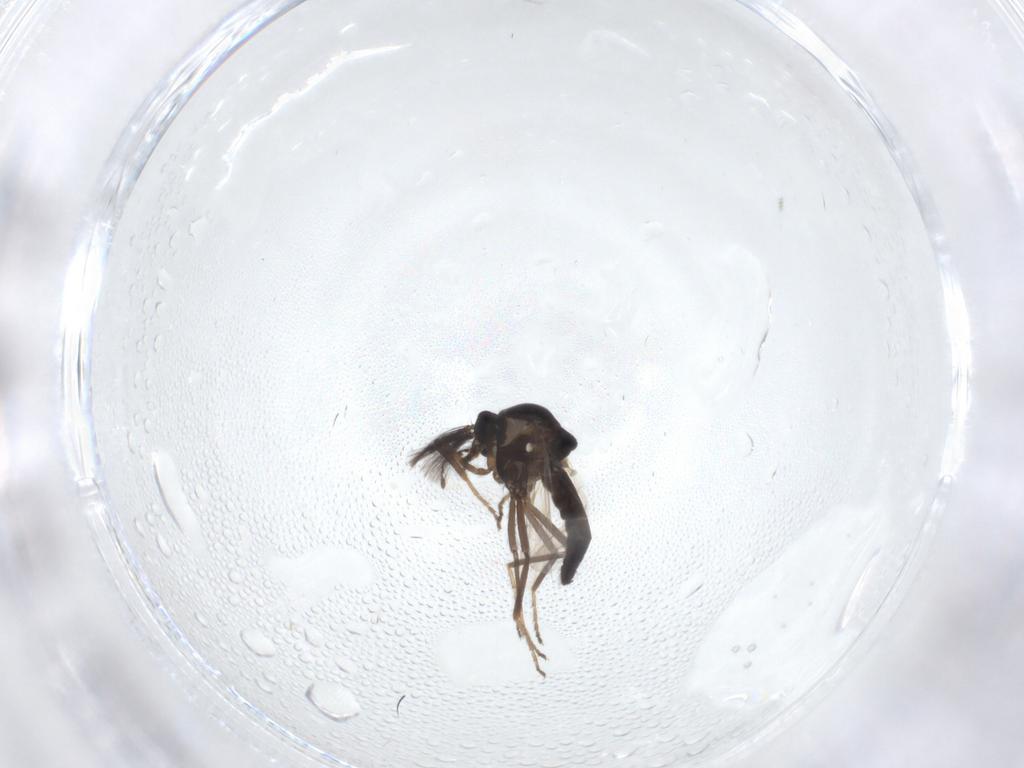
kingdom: Animalia
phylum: Arthropoda
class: Insecta
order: Diptera
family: Ceratopogonidae
